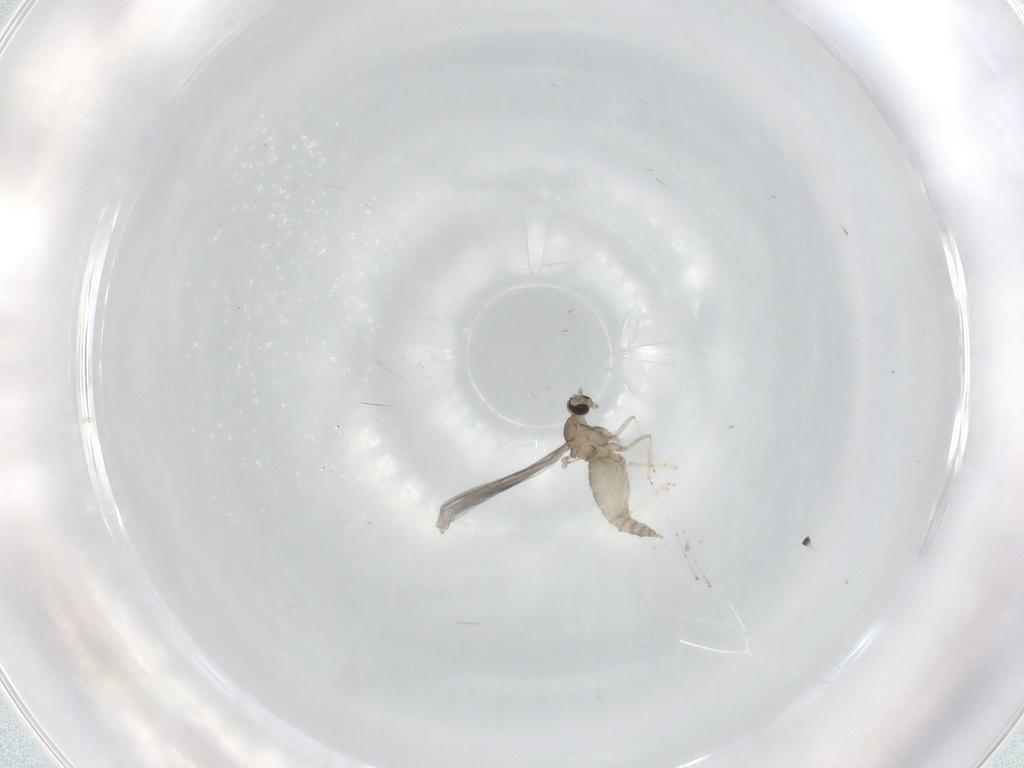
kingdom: Animalia
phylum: Arthropoda
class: Insecta
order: Diptera
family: Cecidomyiidae
